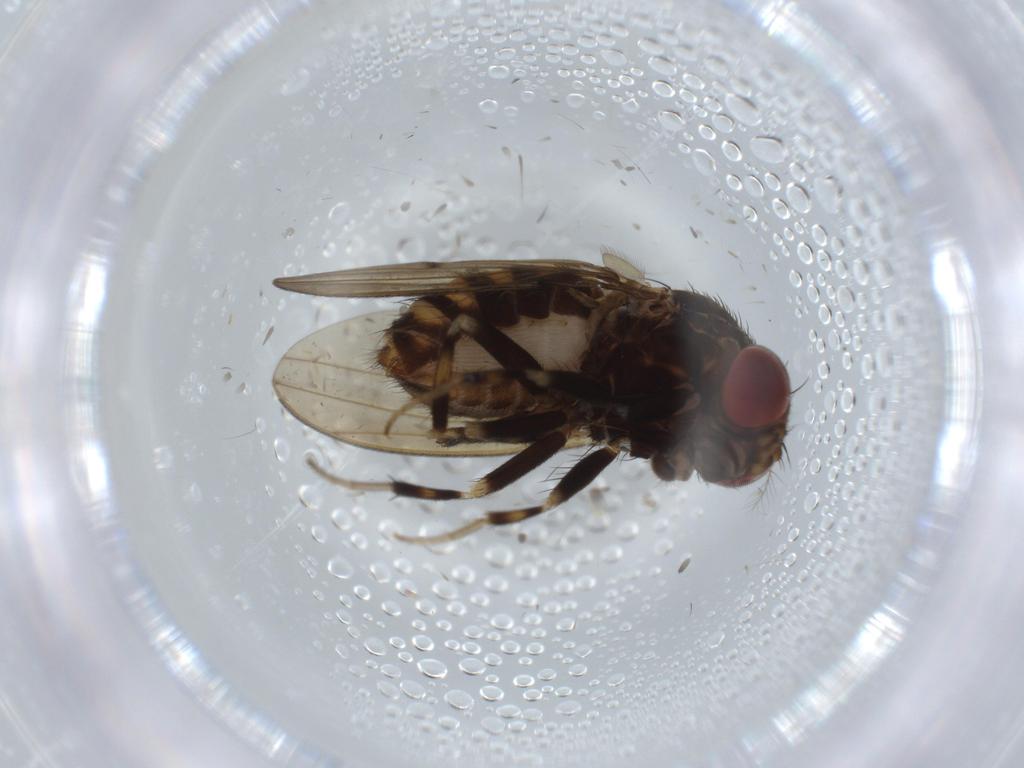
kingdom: Animalia
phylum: Arthropoda
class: Insecta
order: Diptera
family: Drosophilidae
